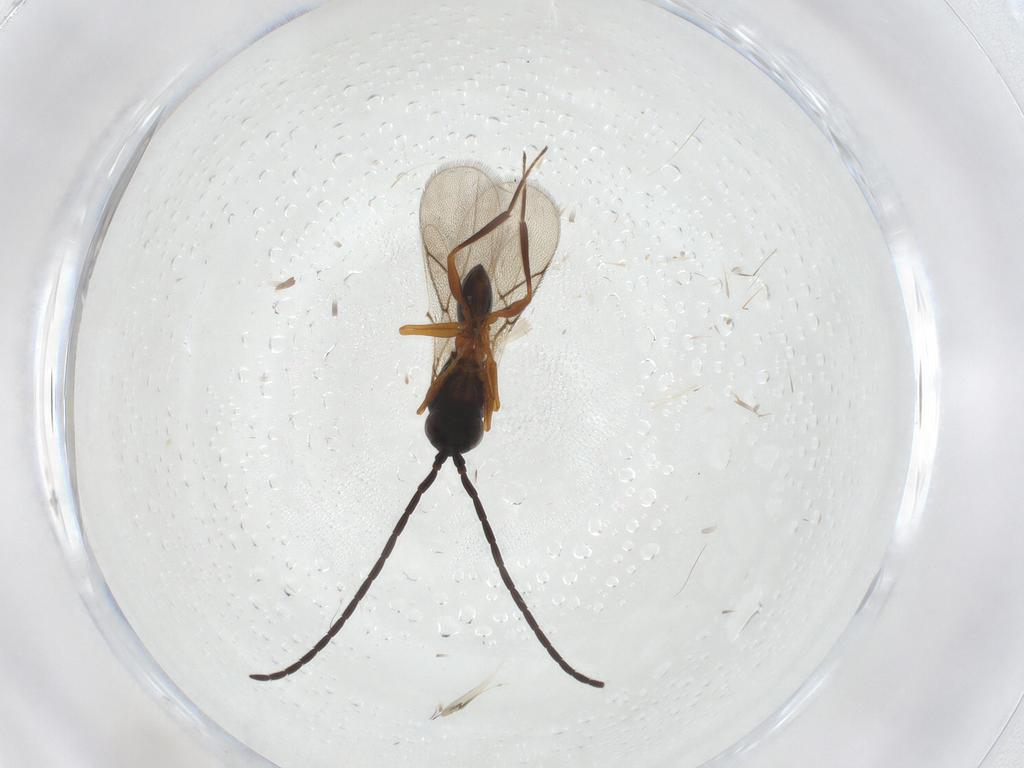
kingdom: Animalia
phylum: Arthropoda
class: Insecta
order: Hymenoptera
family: Figitidae
